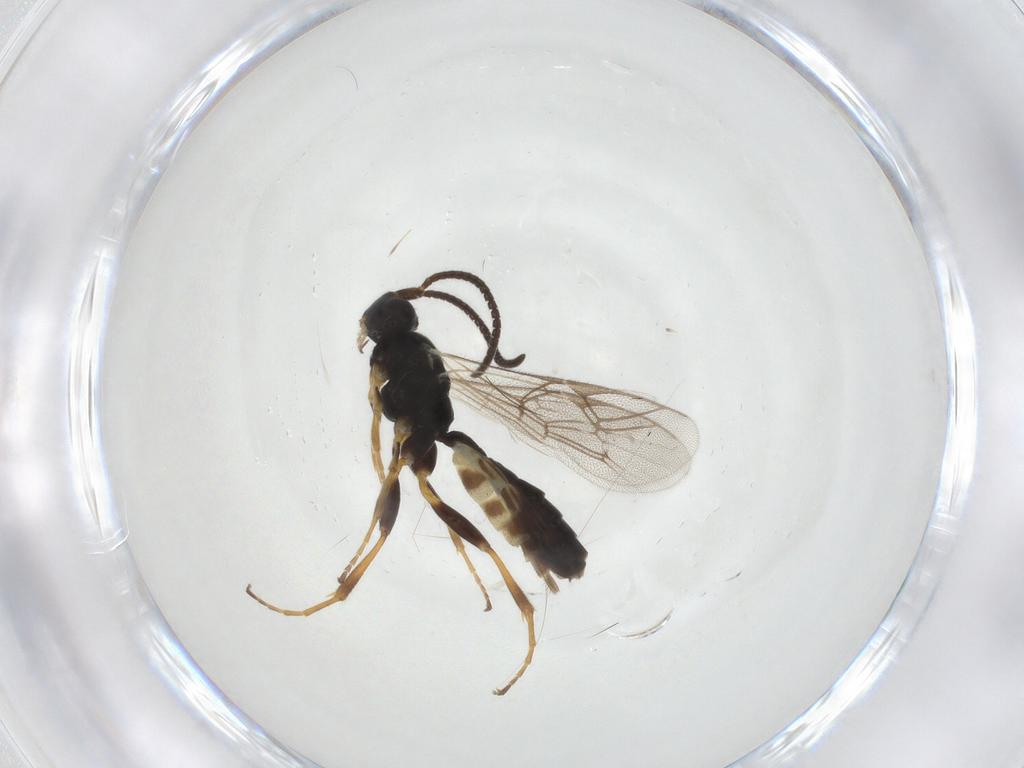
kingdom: Animalia
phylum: Arthropoda
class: Insecta
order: Hymenoptera
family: Ichneumonidae
